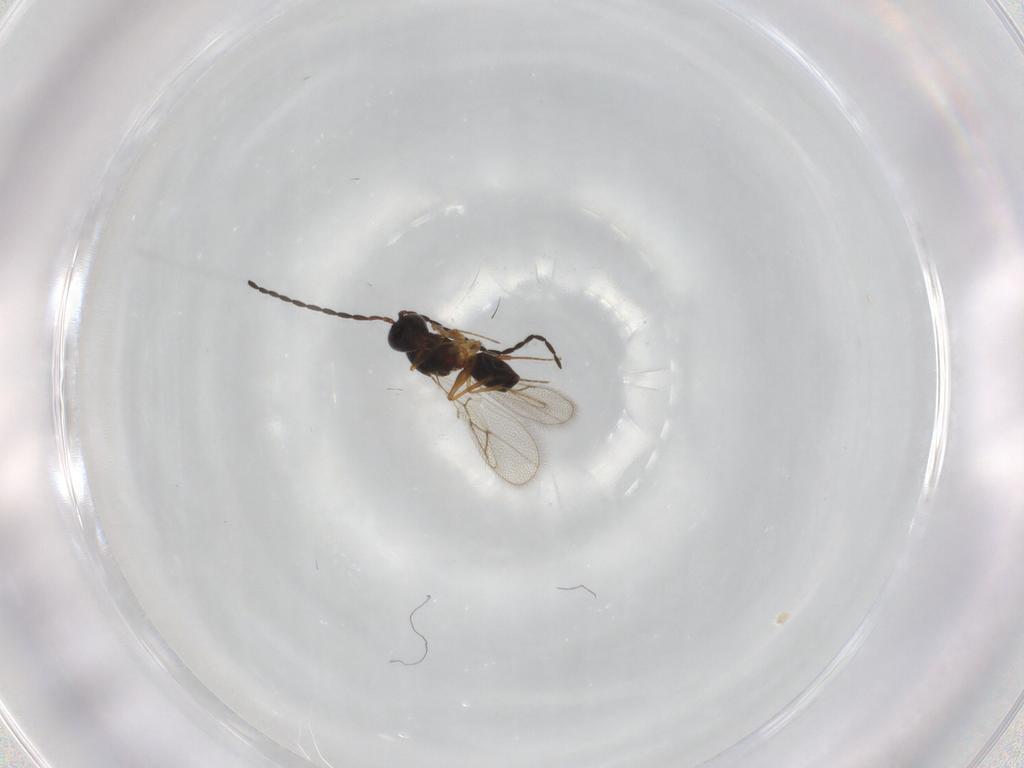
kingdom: Animalia
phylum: Arthropoda
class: Insecta
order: Hymenoptera
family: Figitidae
